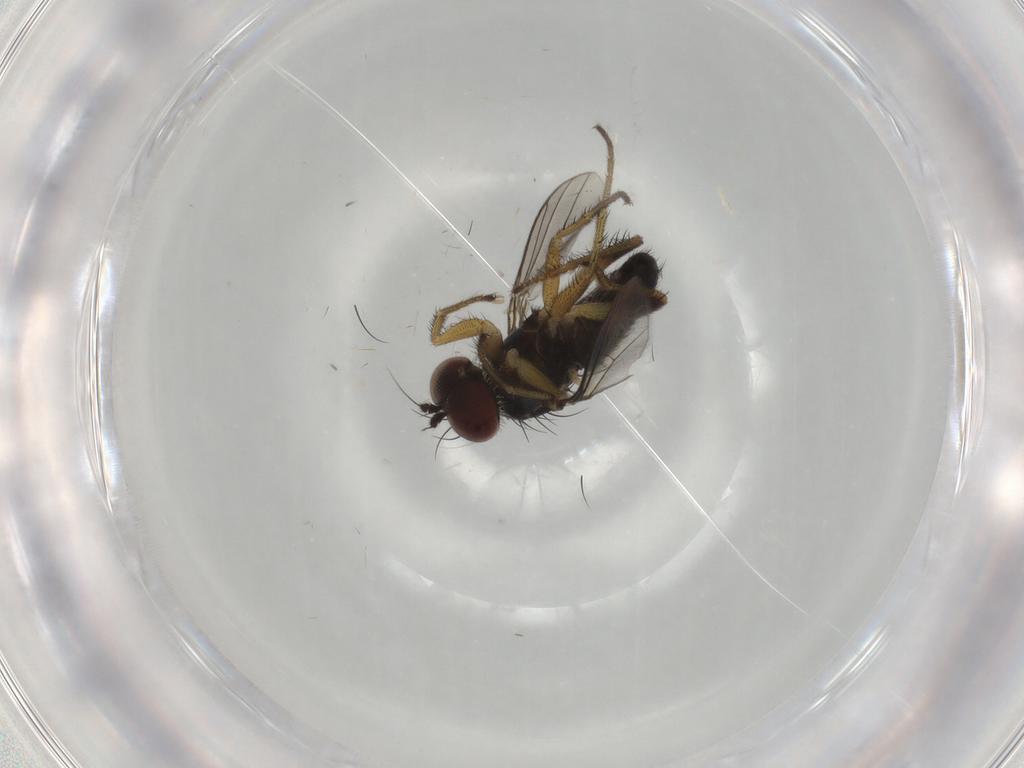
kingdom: Animalia
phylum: Arthropoda
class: Insecta
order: Diptera
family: Dolichopodidae
